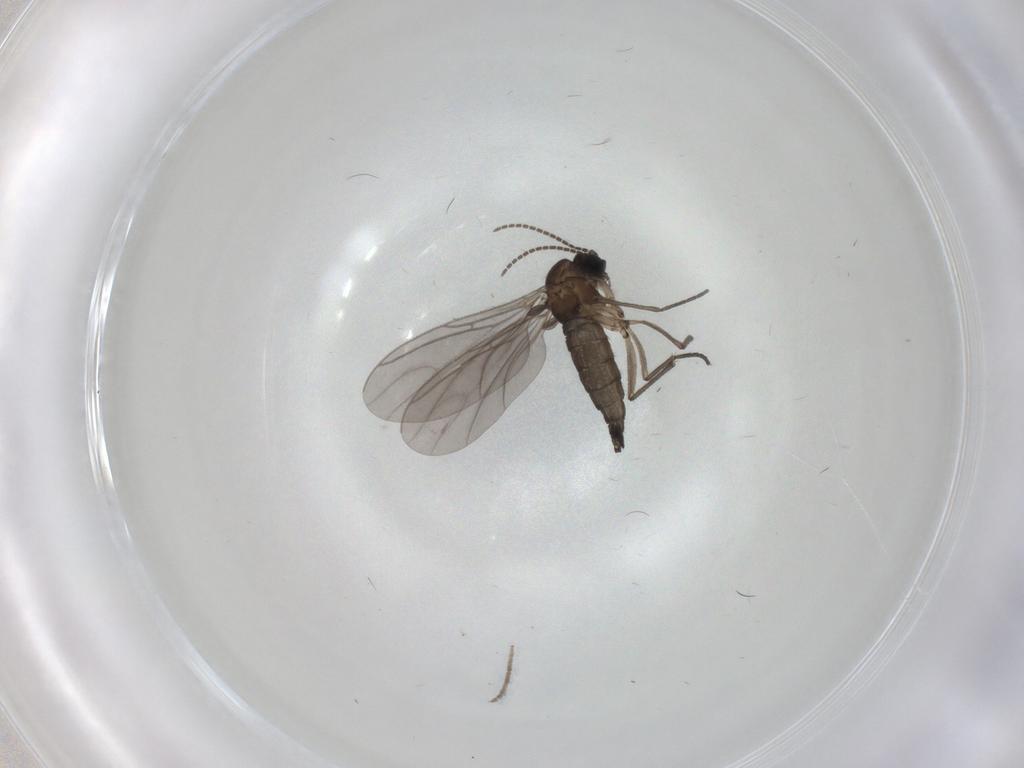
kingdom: Animalia
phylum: Arthropoda
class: Insecta
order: Diptera
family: Sciaridae
